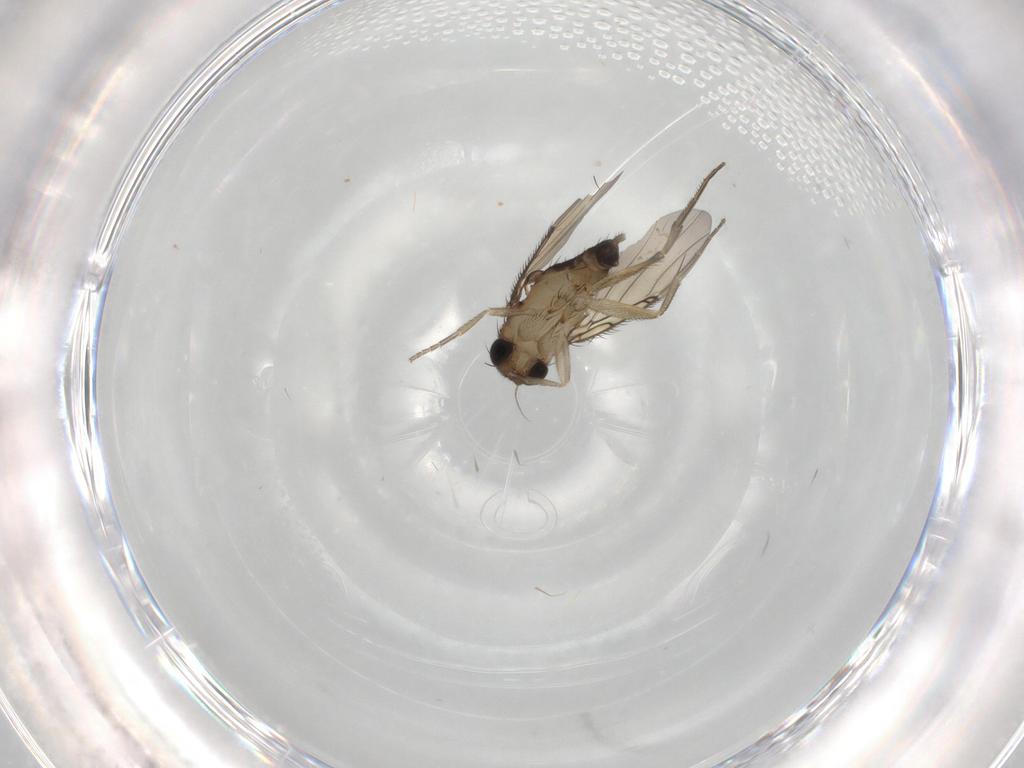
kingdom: Animalia
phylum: Arthropoda
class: Insecta
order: Diptera
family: Phoridae
